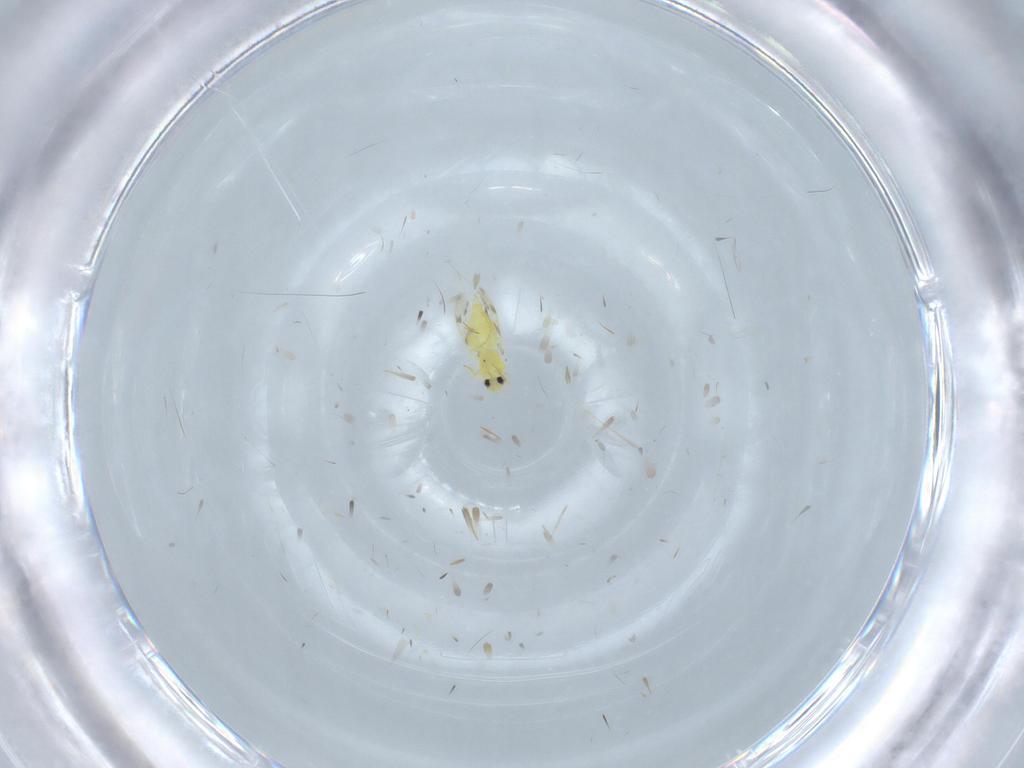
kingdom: Animalia
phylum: Arthropoda
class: Insecta
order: Hemiptera
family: Aleyrodidae
